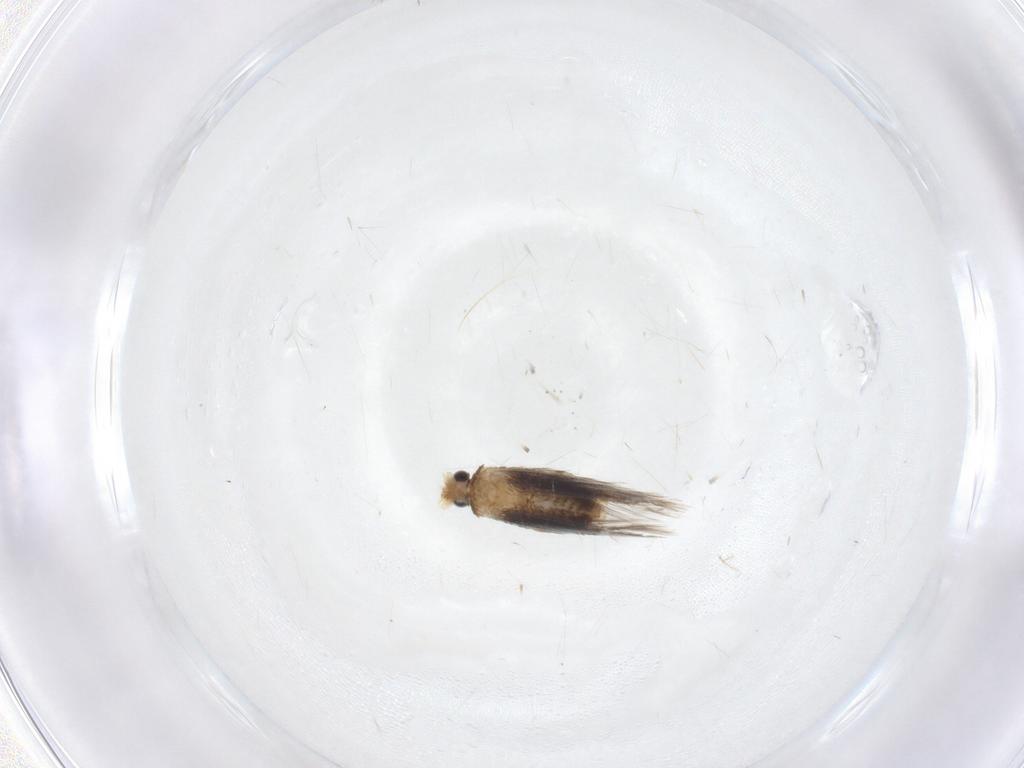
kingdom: Animalia
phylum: Arthropoda
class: Insecta
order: Lepidoptera
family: Nepticulidae
